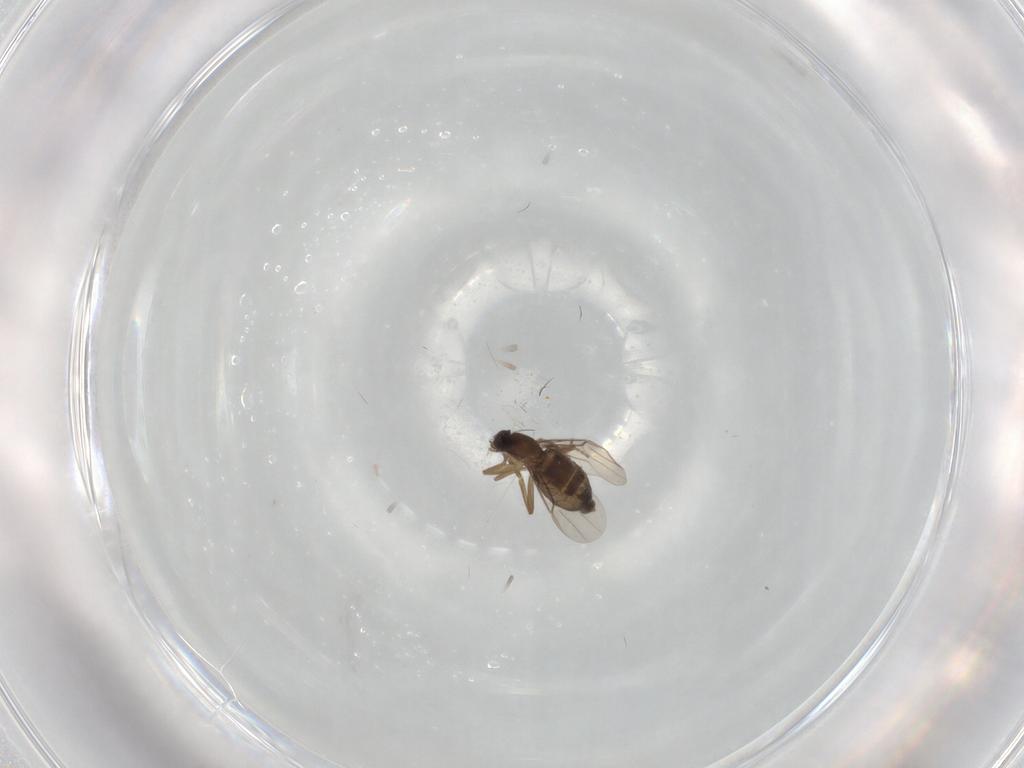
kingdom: Animalia
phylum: Arthropoda
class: Insecta
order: Diptera
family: Phoridae
